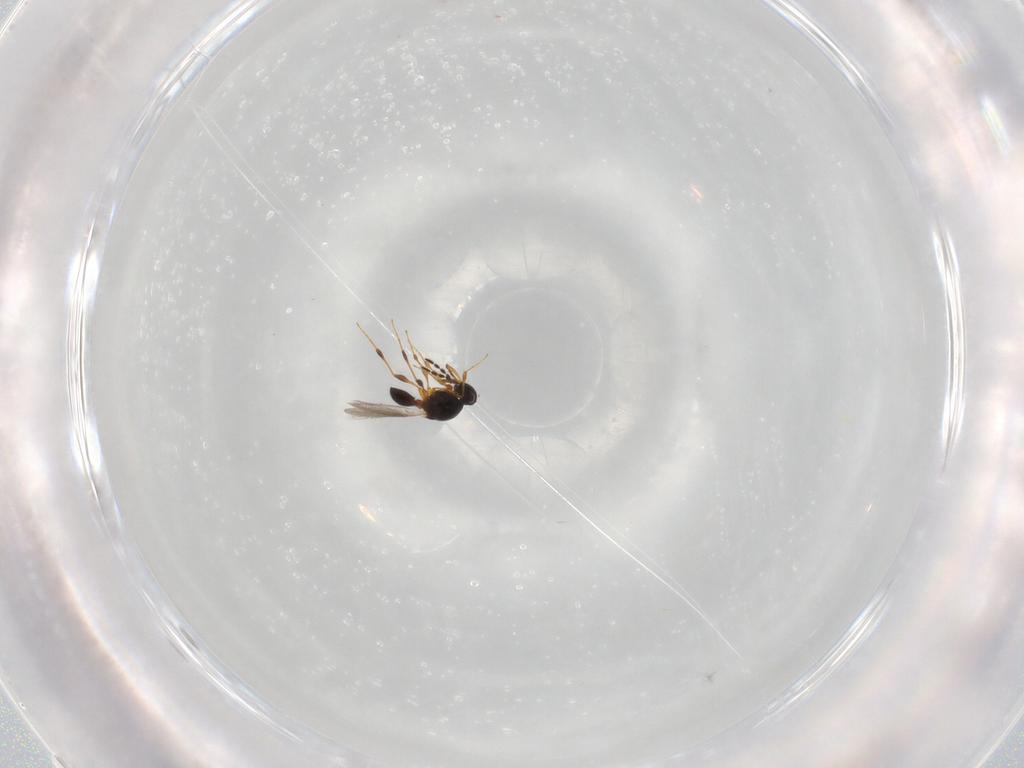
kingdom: Animalia
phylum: Arthropoda
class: Insecta
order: Hymenoptera
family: Platygastridae
